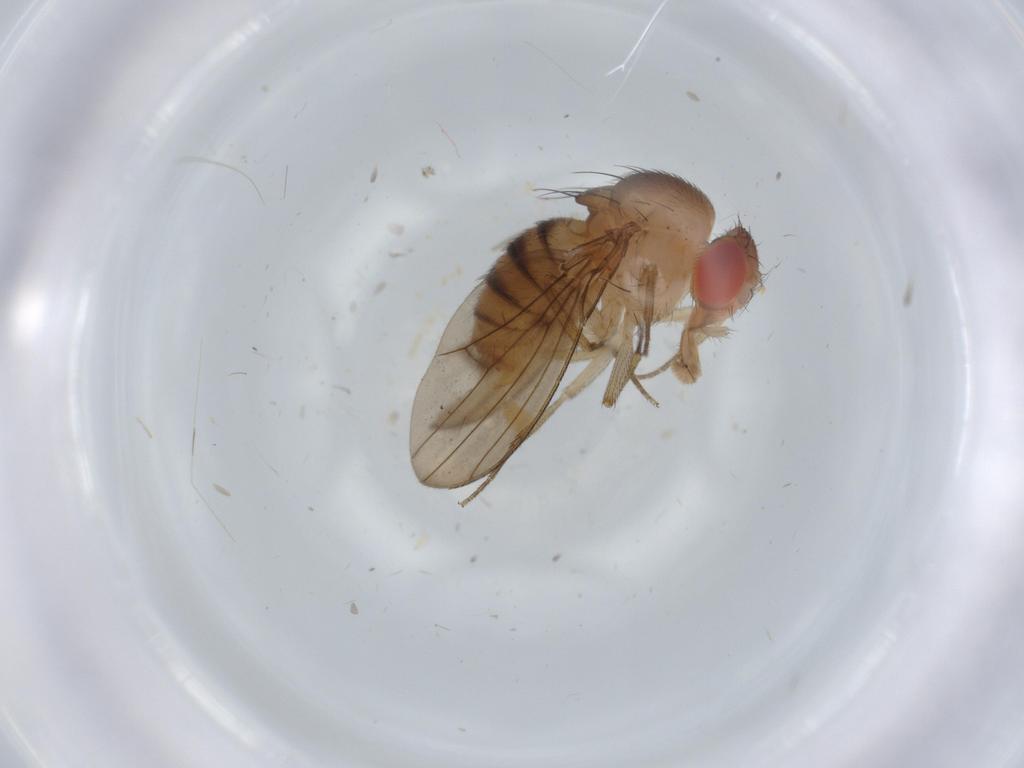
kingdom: Animalia
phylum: Arthropoda
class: Insecta
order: Diptera
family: Drosophilidae
